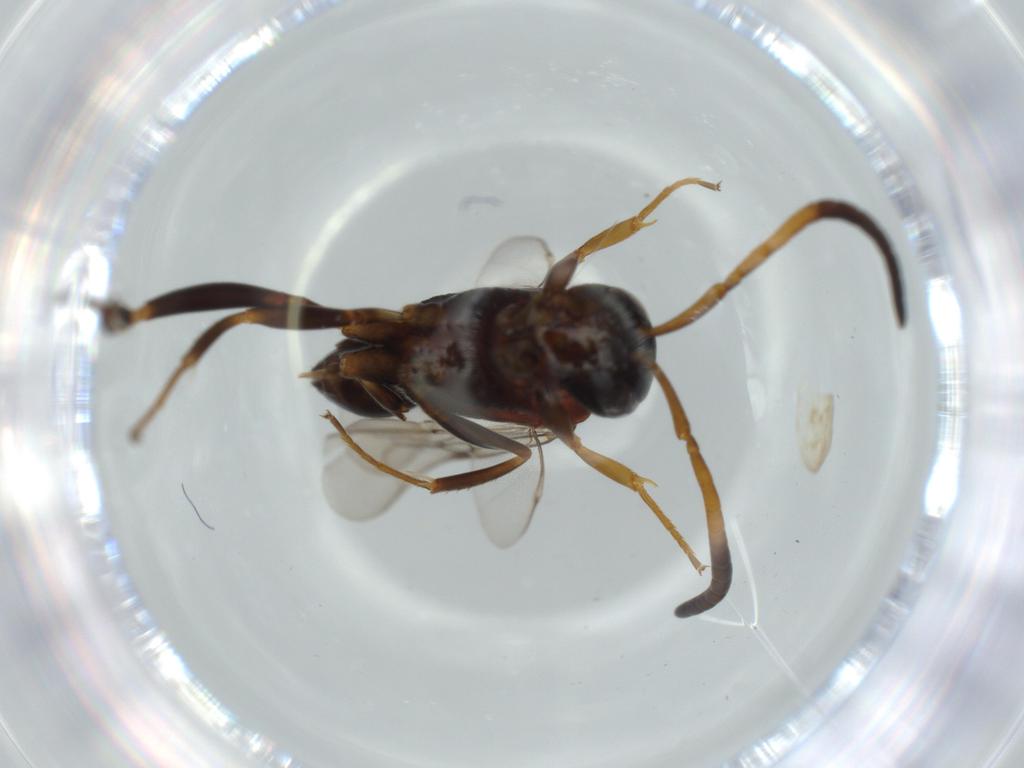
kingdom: Animalia
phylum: Arthropoda
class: Insecta
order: Hymenoptera
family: Evaniidae
